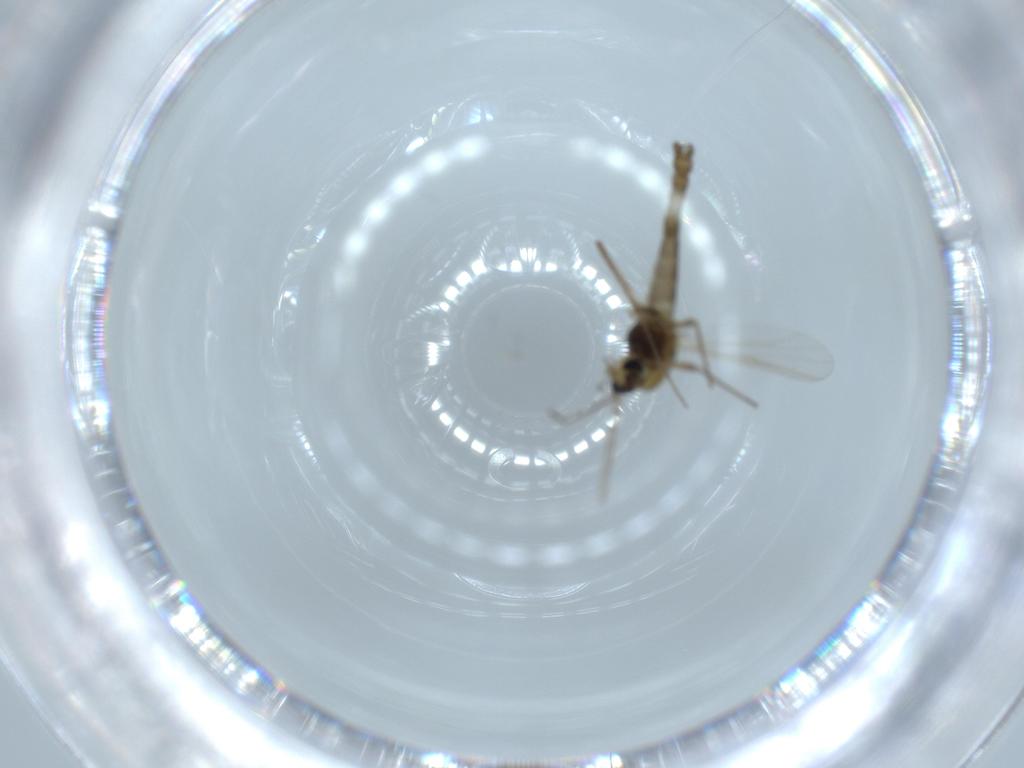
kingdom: Animalia
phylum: Arthropoda
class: Insecta
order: Diptera
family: Chironomidae
